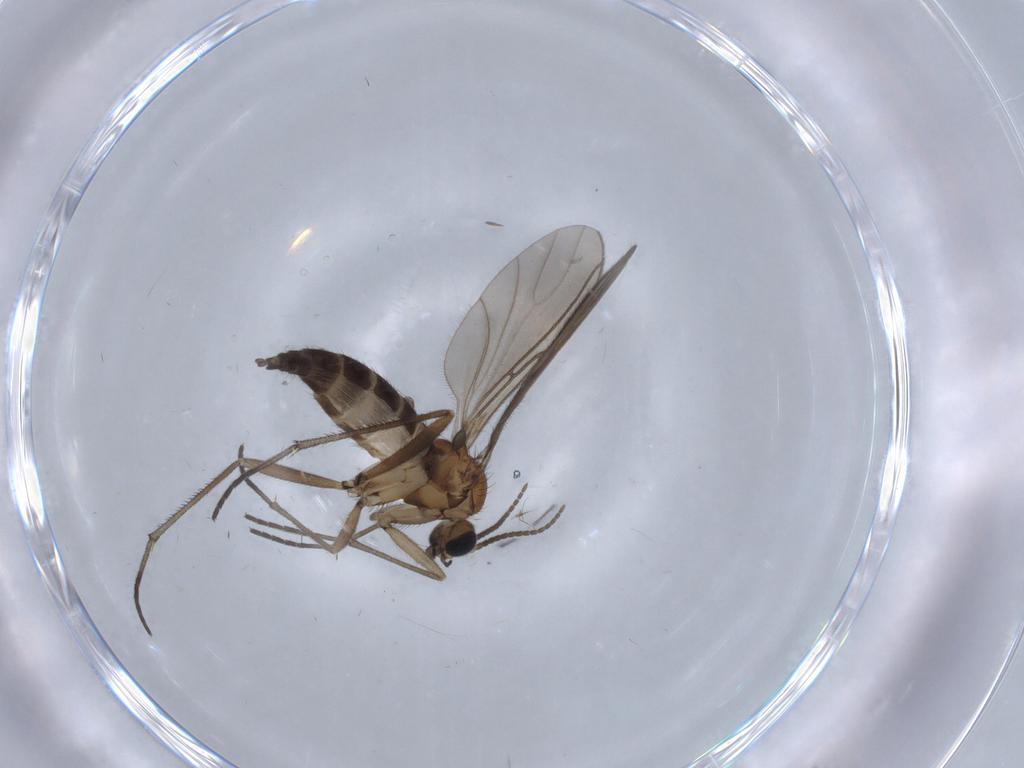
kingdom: Animalia
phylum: Arthropoda
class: Insecta
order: Diptera
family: Sciaridae
